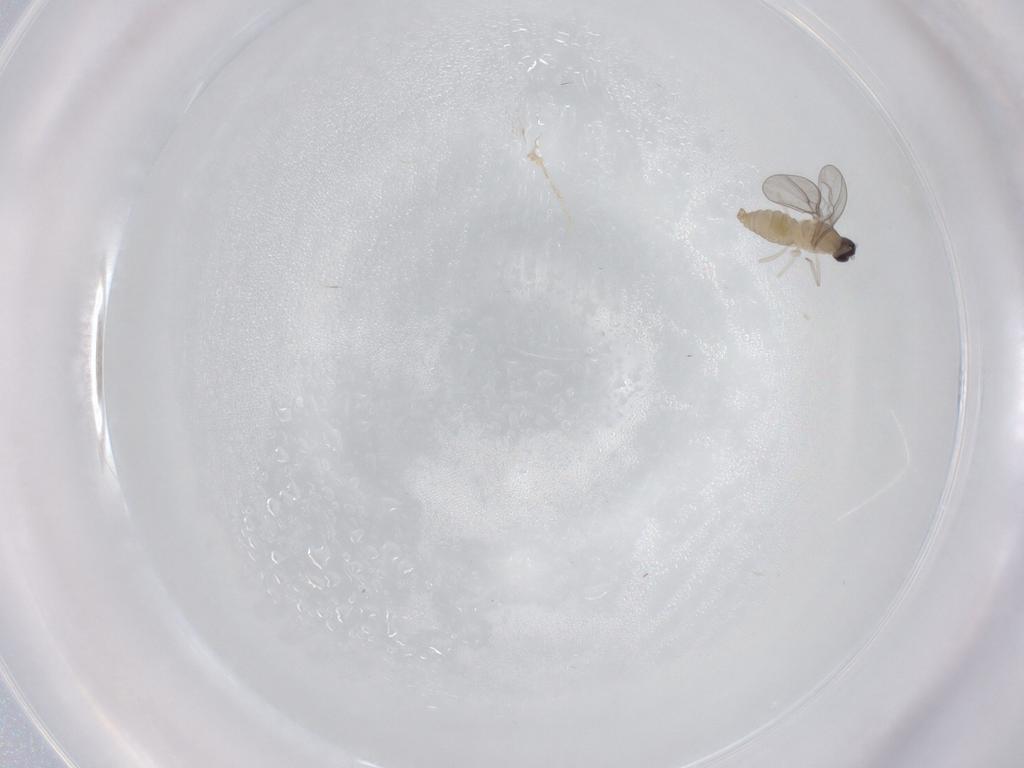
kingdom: Animalia
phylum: Arthropoda
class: Insecta
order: Diptera
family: Cecidomyiidae
